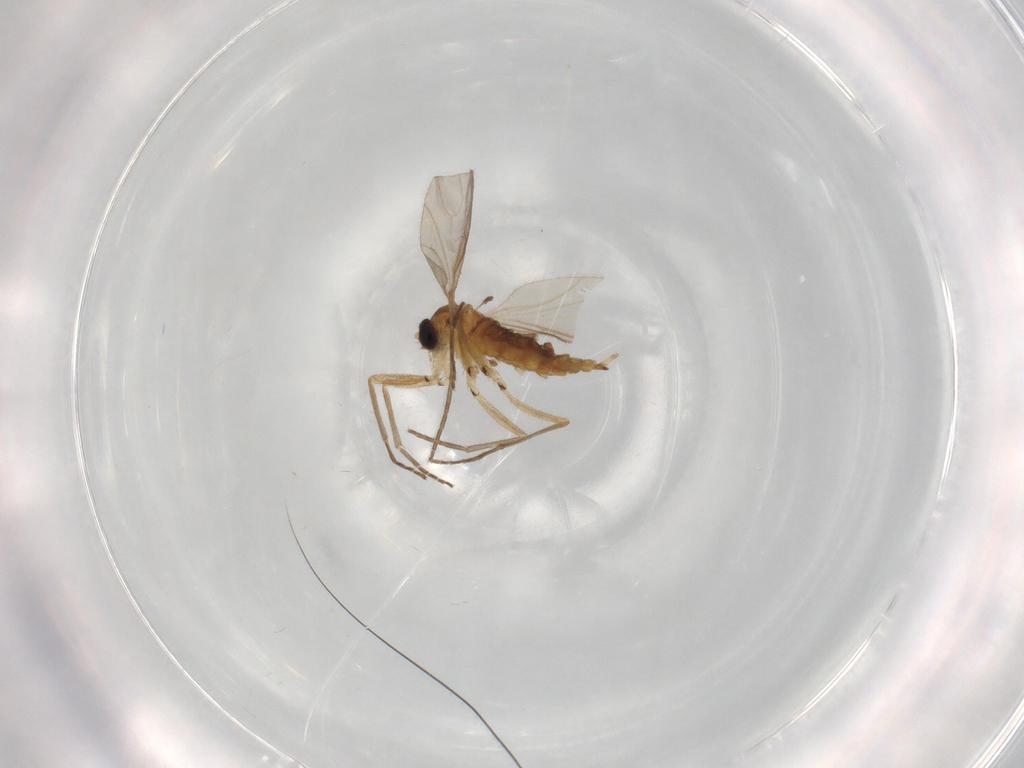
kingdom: Animalia
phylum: Arthropoda
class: Insecta
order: Diptera
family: Sciaridae
